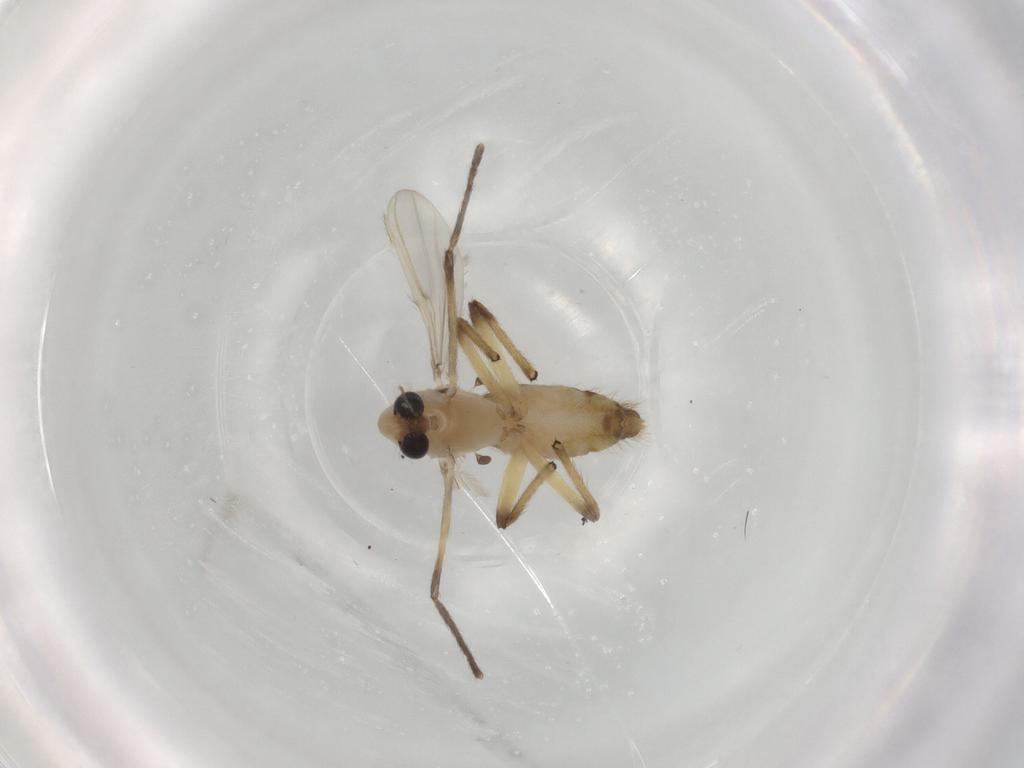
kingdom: Animalia
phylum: Arthropoda
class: Insecta
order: Diptera
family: Chironomidae
